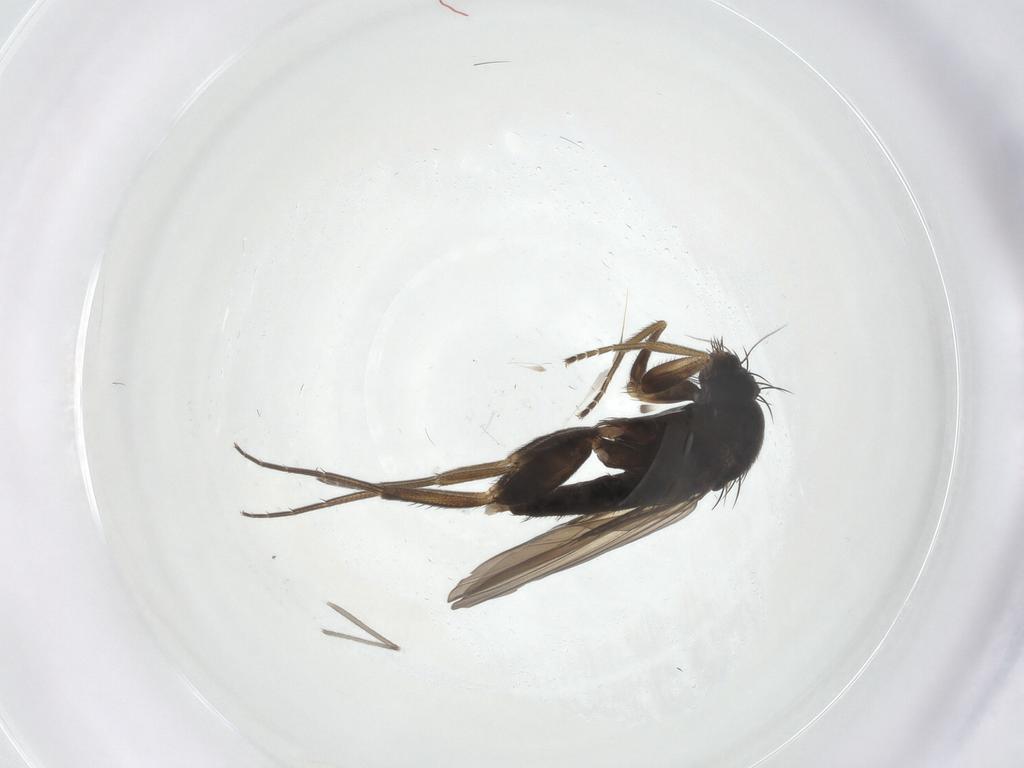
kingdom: Animalia
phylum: Arthropoda
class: Insecta
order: Diptera
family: Phoridae
